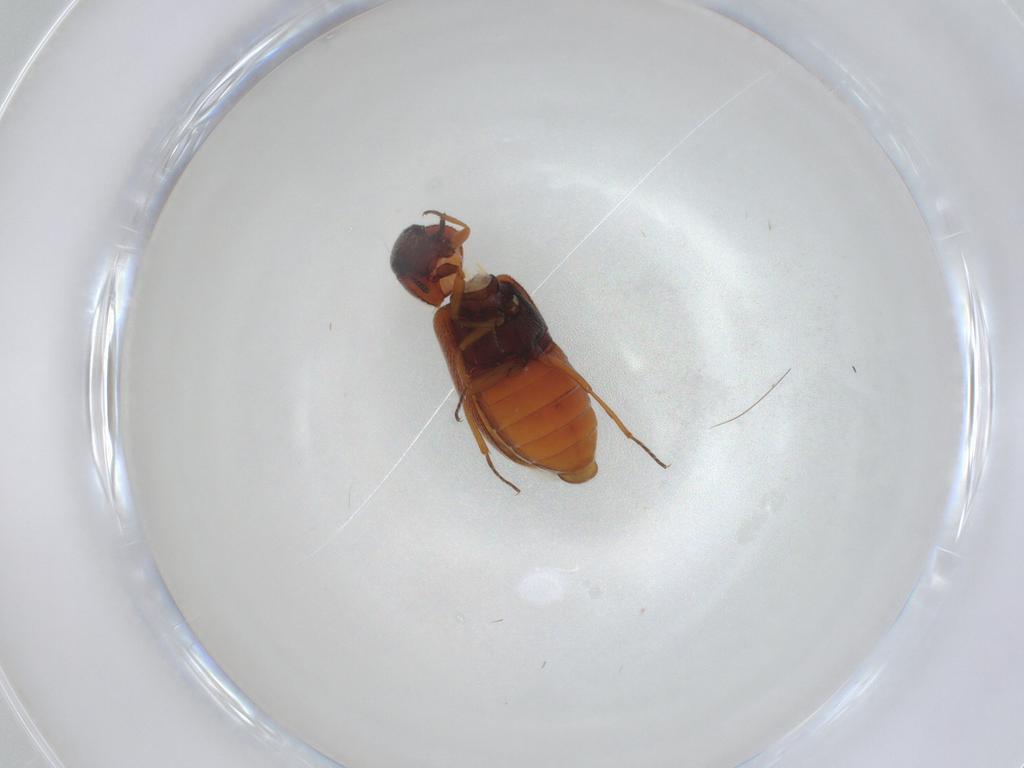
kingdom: Animalia
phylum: Arthropoda
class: Insecta
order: Coleoptera
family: Rhadalidae
